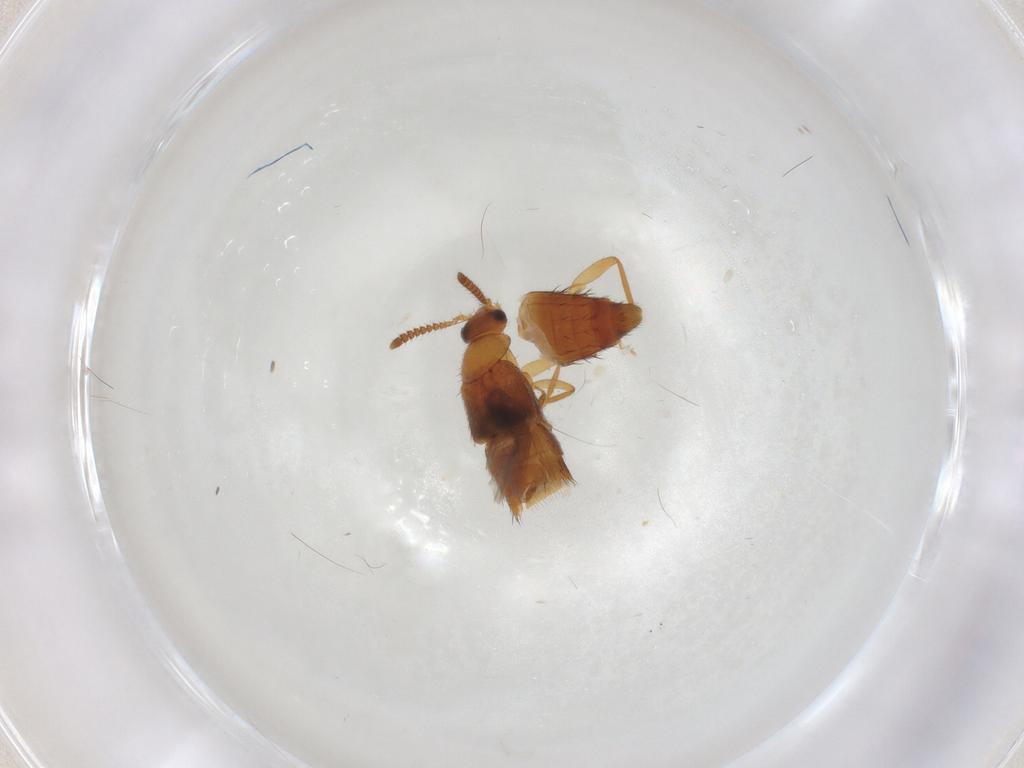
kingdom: Animalia
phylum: Arthropoda
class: Insecta
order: Coleoptera
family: Staphylinidae
